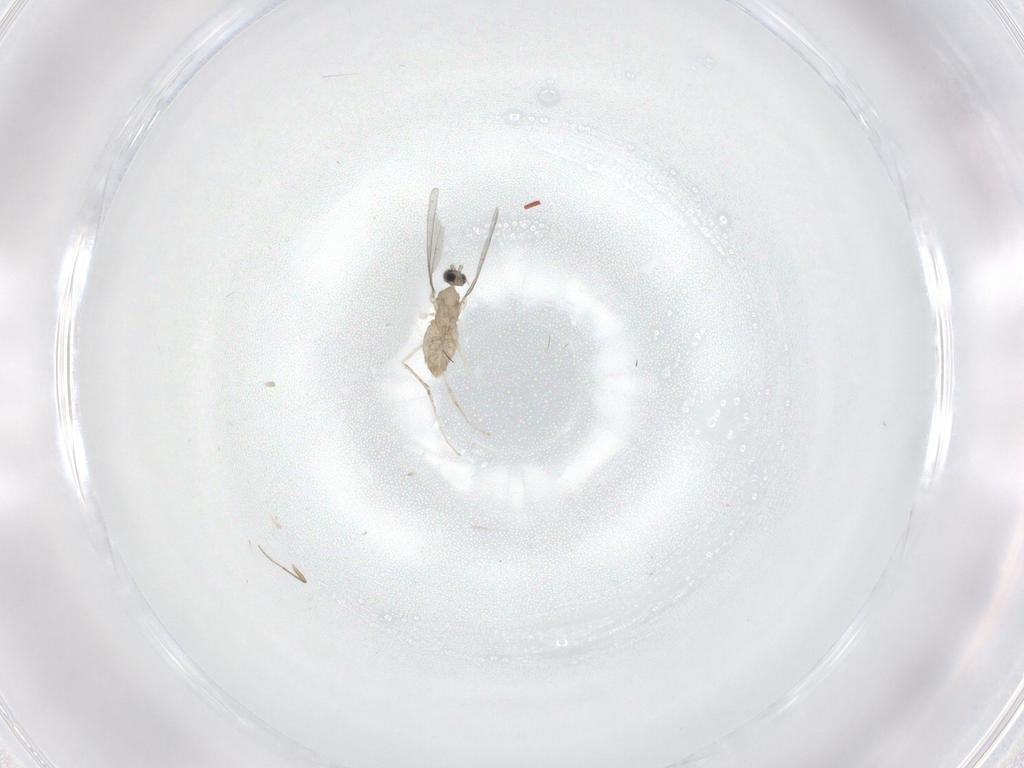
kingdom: Animalia
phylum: Arthropoda
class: Insecta
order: Diptera
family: Cecidomyiidae
